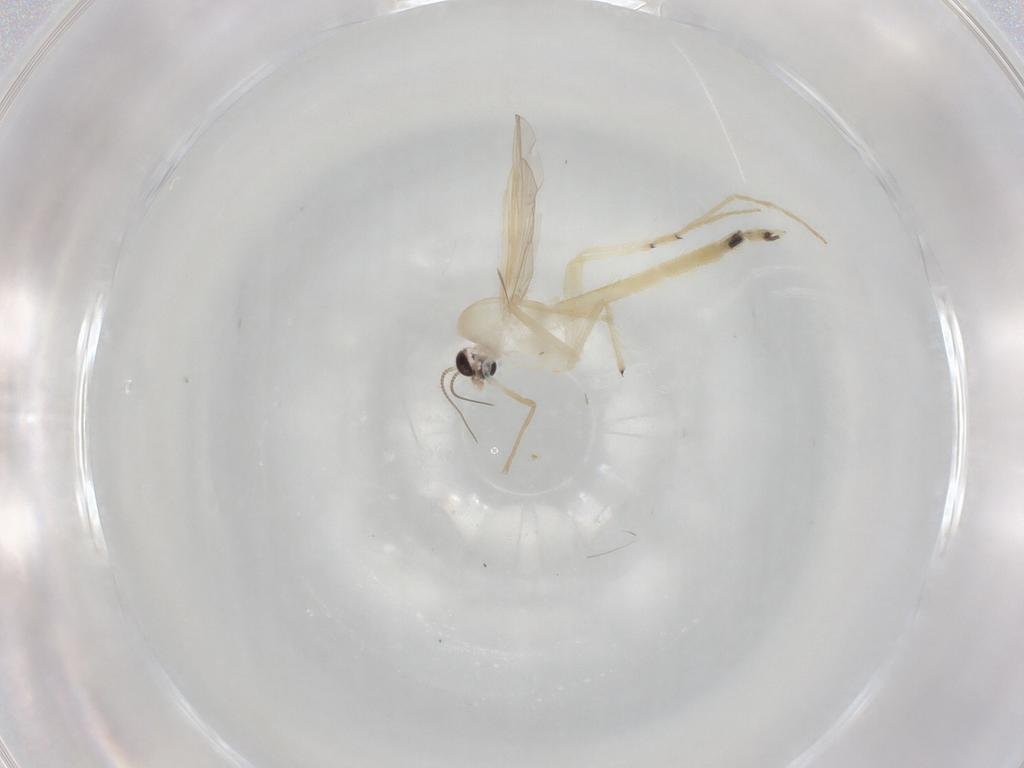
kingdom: Animalia
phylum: Arthropoda
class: Insecta
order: Diptera
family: Chironomidae
